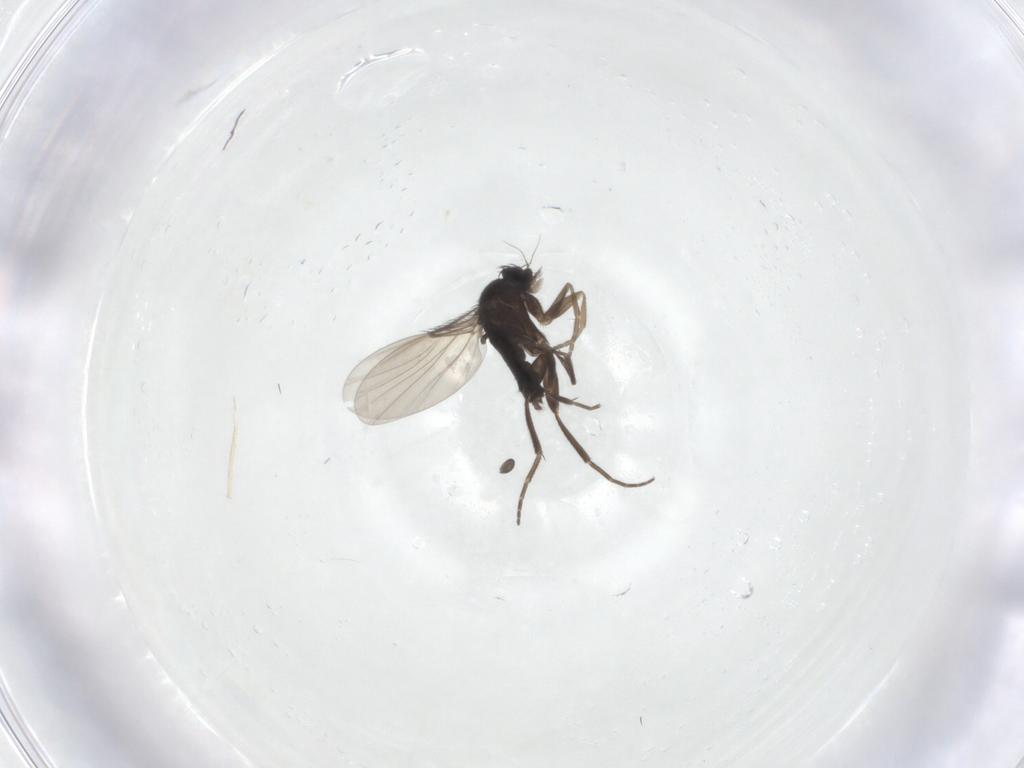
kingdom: Animalia
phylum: Arthropoda
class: Insecta
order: Diptera
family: Phoridae
